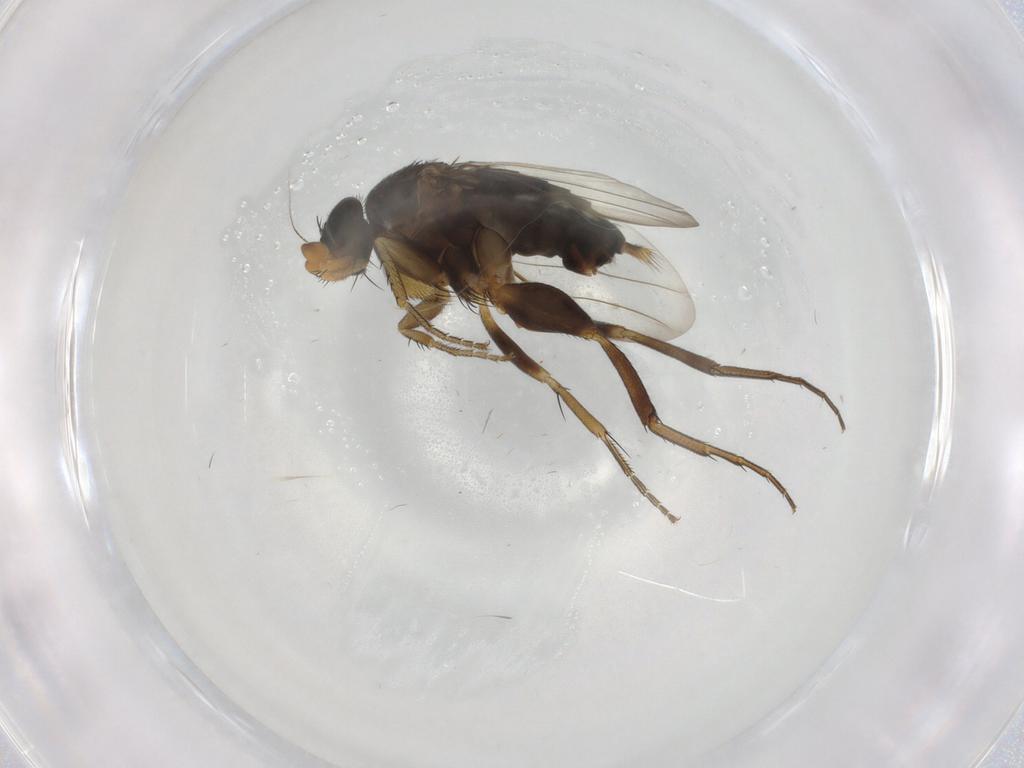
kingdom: Animalia
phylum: Arthropoda
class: Insecta
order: Diptera
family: Phoridae
